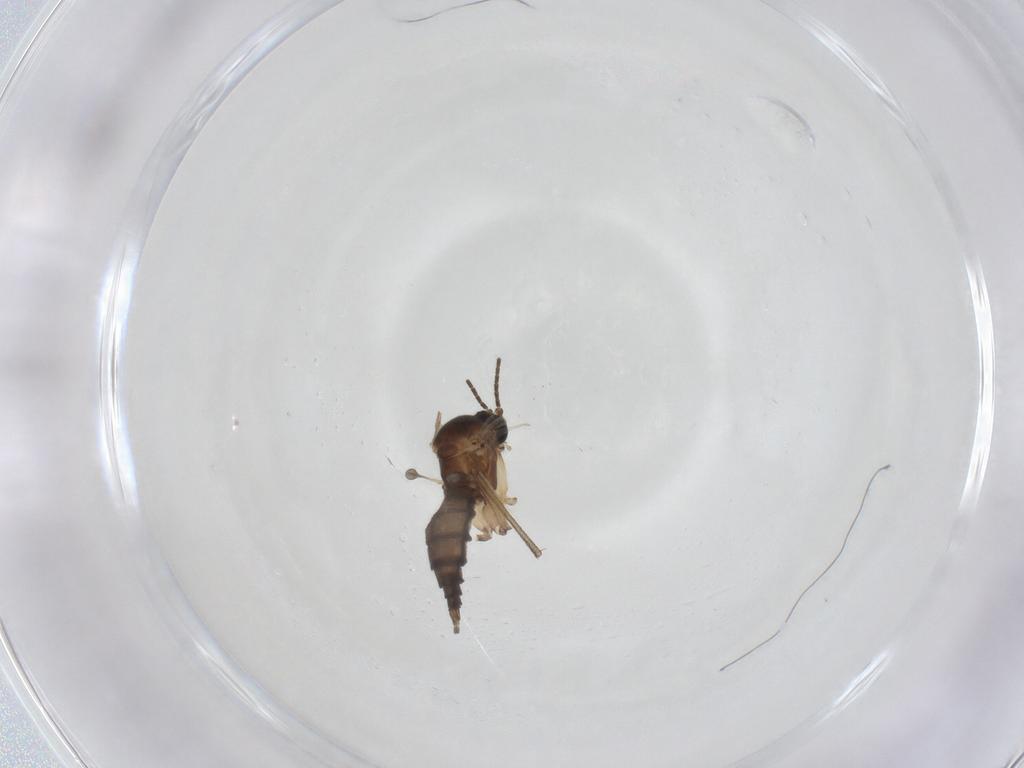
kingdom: Animalia
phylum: Arthropoda
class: Insecta
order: Diptera
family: Sciaridae
